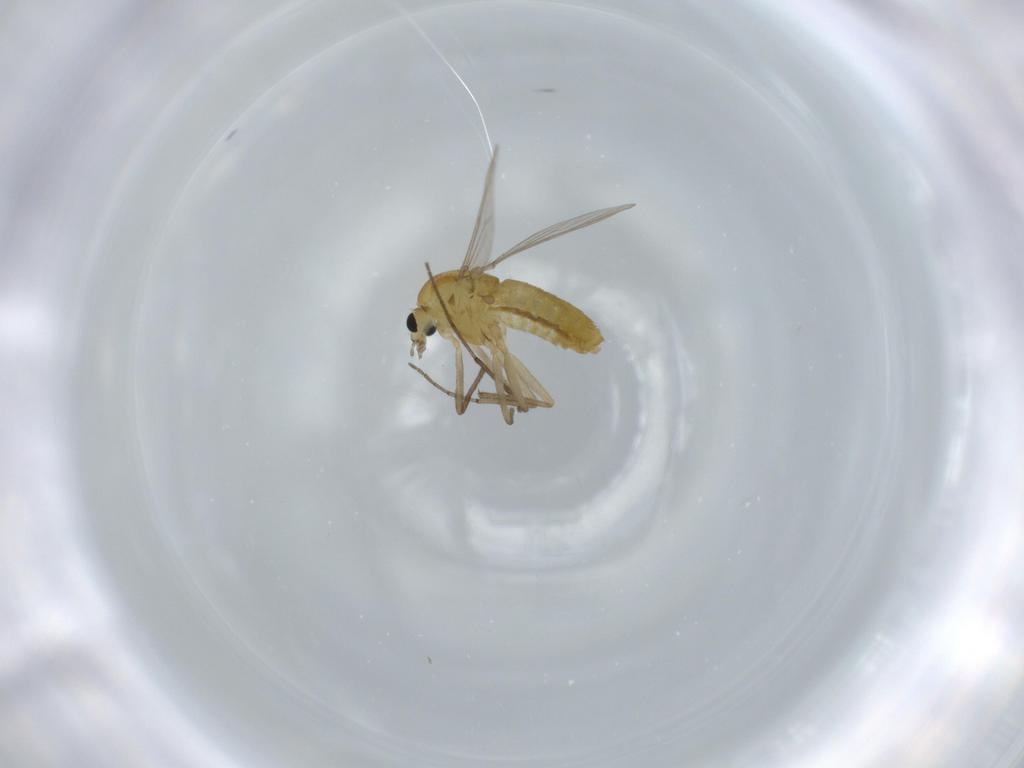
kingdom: Animalia
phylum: Arthropoda
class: Insecta
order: Diptera
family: Chironomidae
